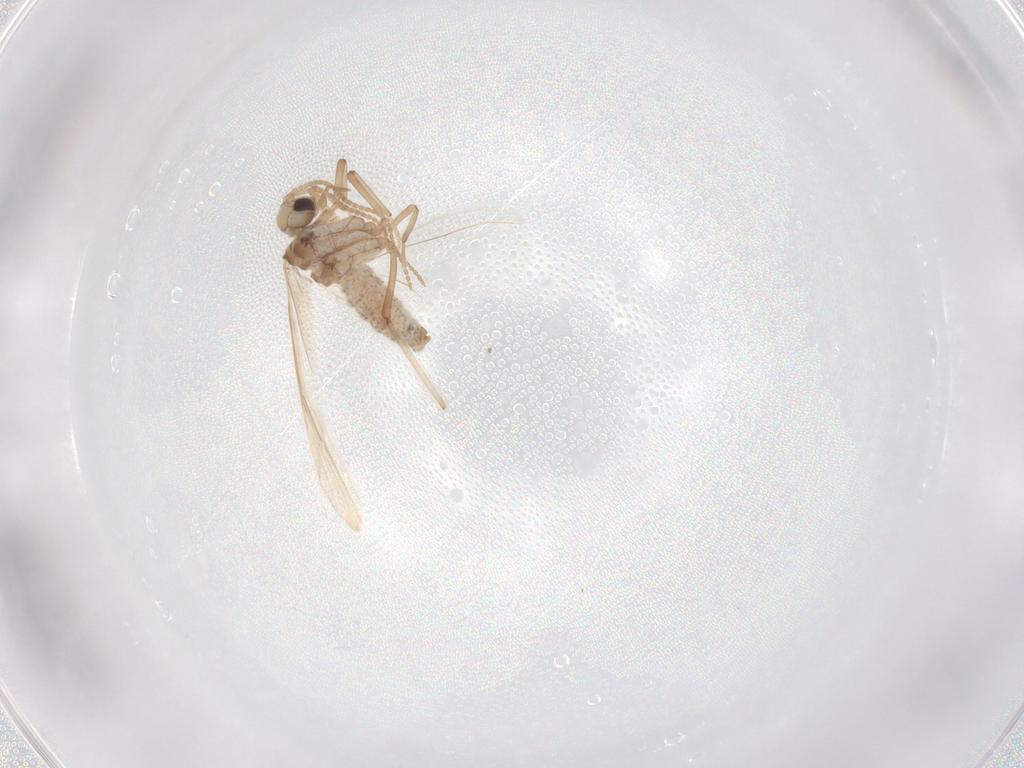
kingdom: Animalia
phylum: Arthropoda
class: Insecta
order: Neuroptera
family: Coniopterygidae
